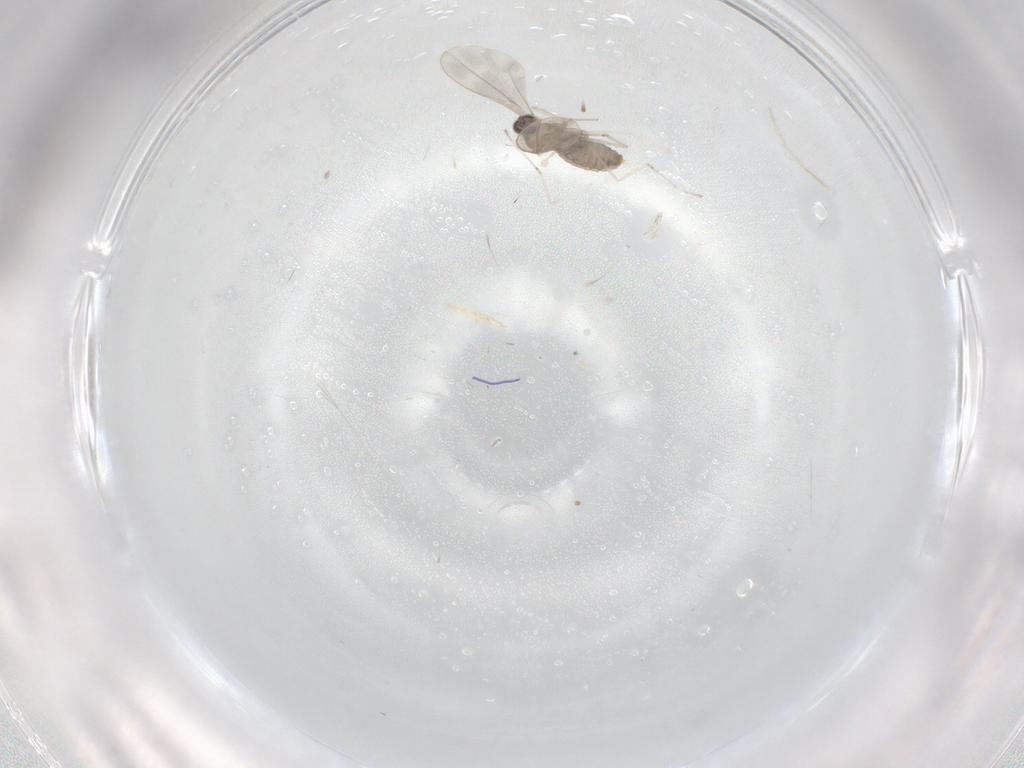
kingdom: Animalia
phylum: Arthropoda
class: Insecta
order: Diptera
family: Cecidomyiidae
